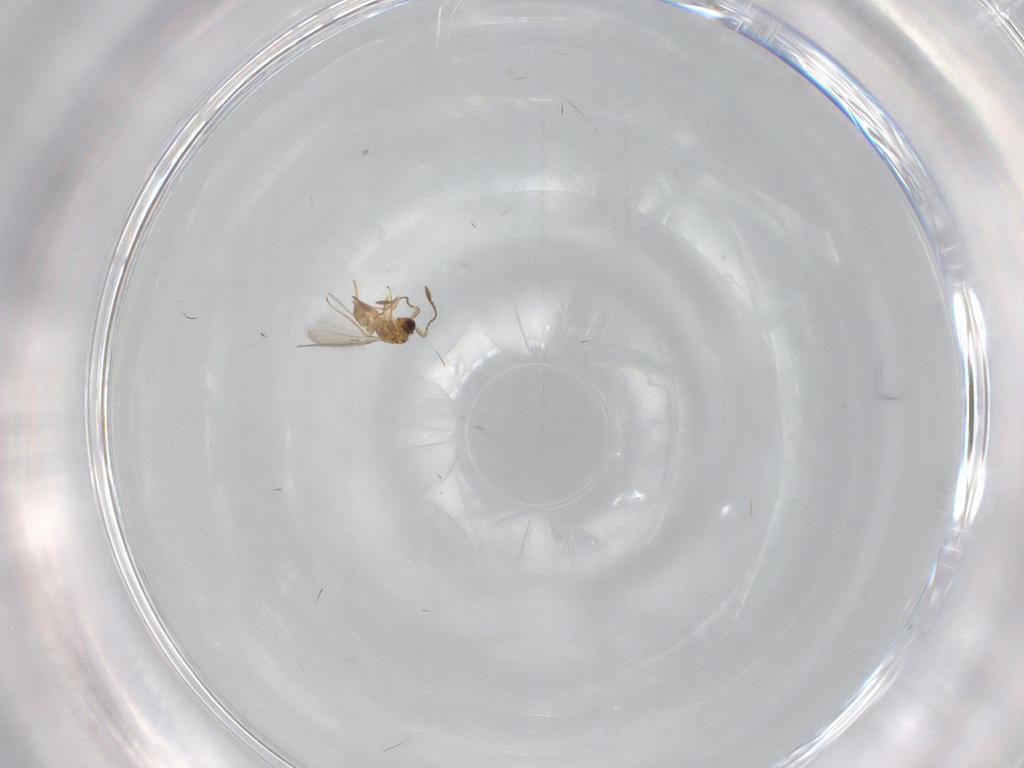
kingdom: Animalia
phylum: Arthropoda
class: Insecta
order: Hymenoptera
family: Mymaridae
